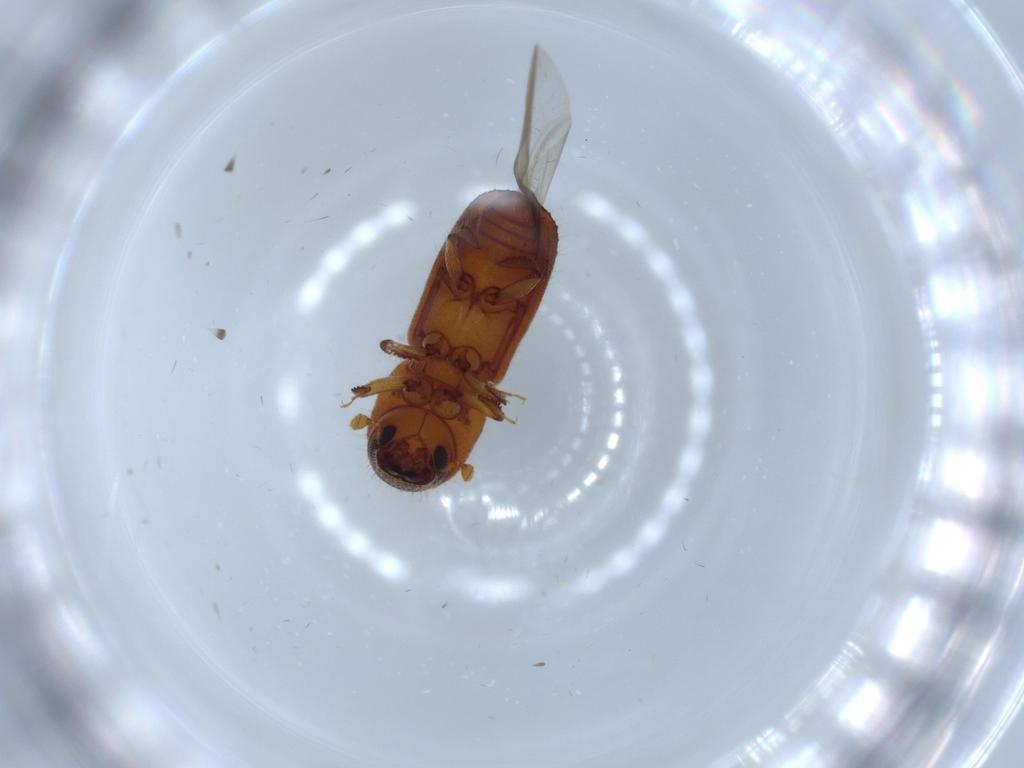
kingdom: Animalia
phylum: Arthropoda
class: Insecta
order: Coleoptera
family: Curculionidae
